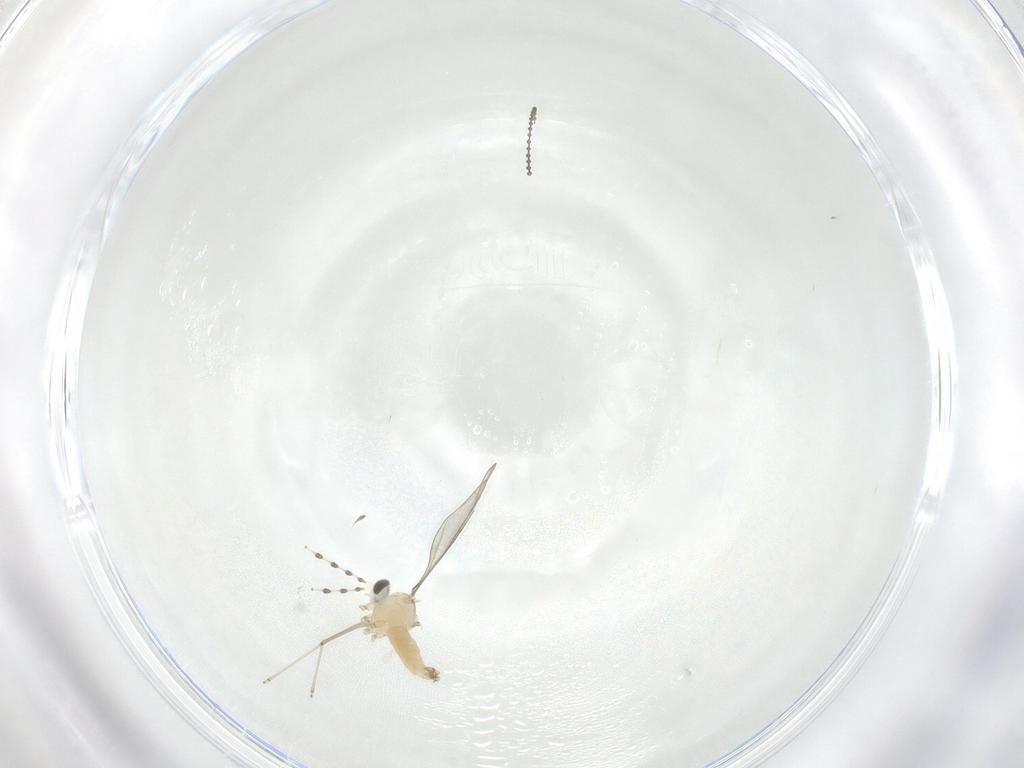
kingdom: Animalia
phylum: Arthropoda
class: Insecta
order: Diptera
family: Cecidomyiidae
